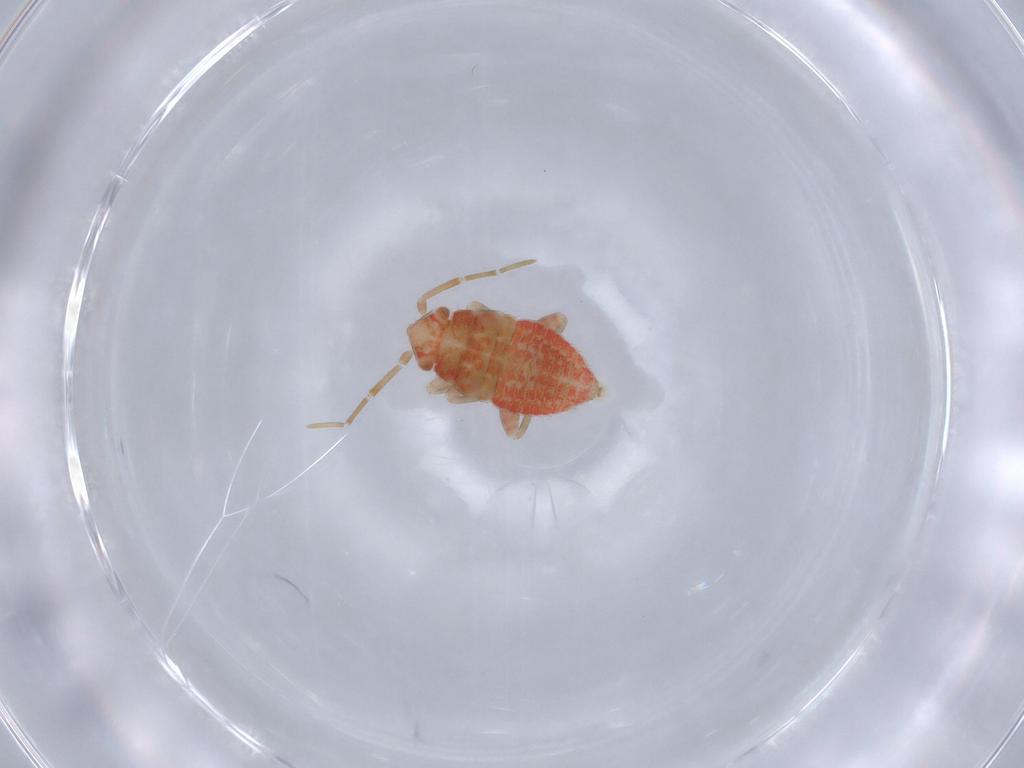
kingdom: Animalia
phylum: Arthropoda
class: Insecta
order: Hemiptera
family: Miridae
